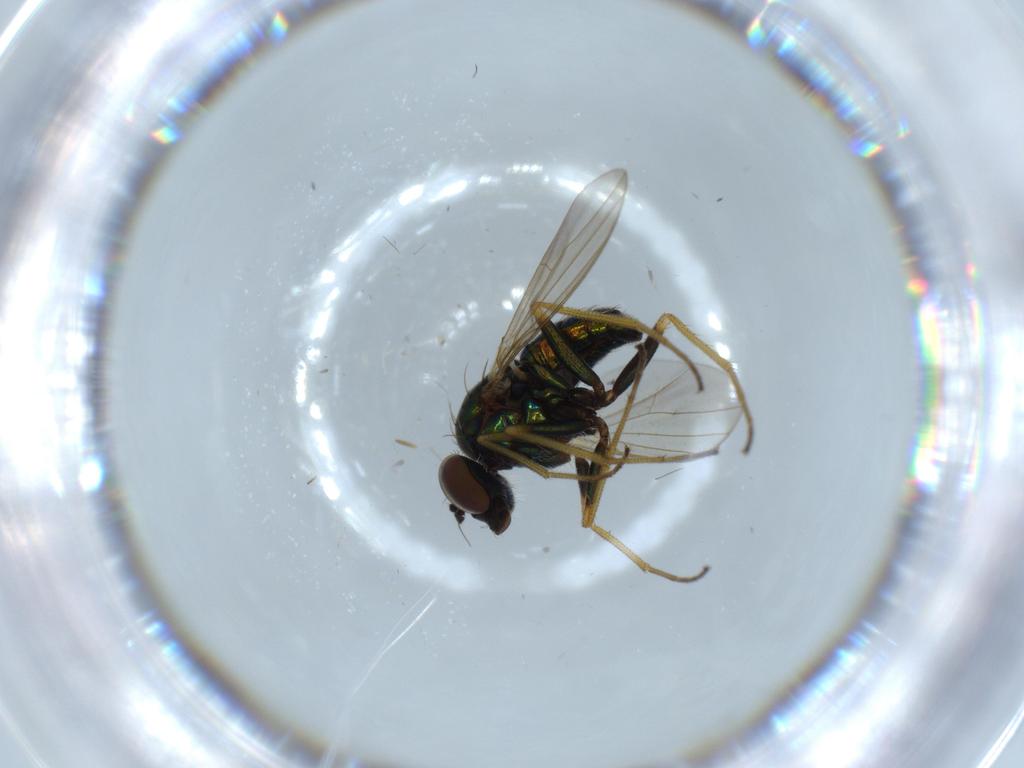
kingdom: Animalia
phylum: Arthropoda
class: Insecta
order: Diptera
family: Dolichopodidae
